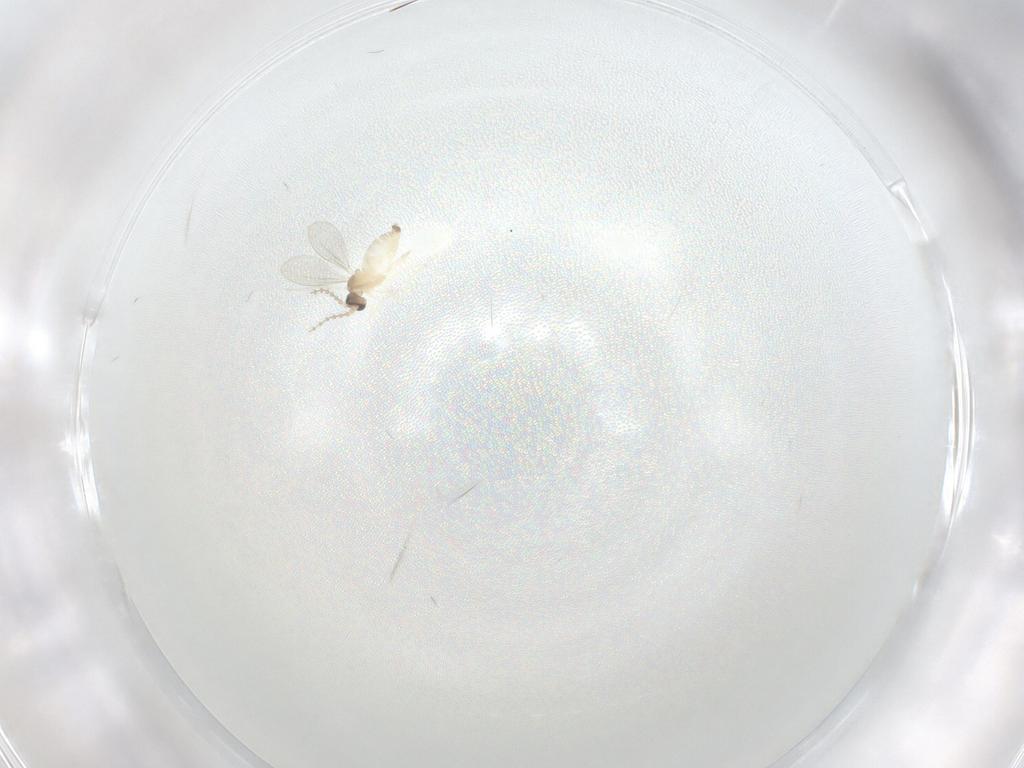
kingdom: Animalia
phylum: Arthropoda
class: Insecta
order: Diptera
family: Cecidomyiidae
